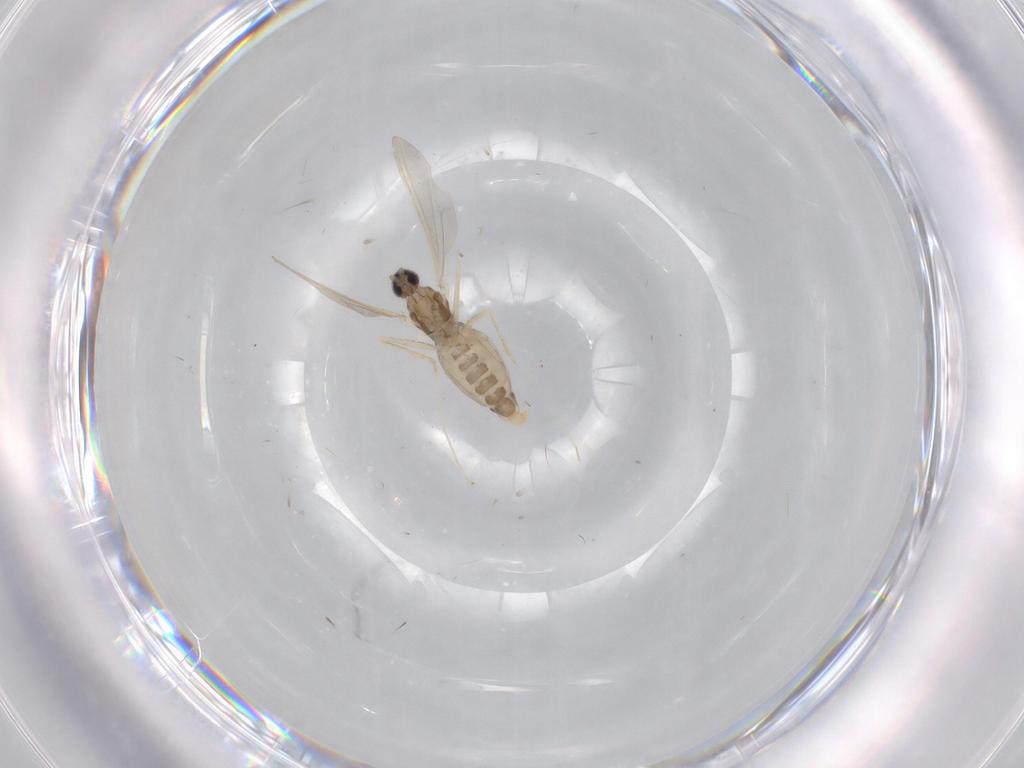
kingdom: Animalia
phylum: Arthropoda
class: Insecta
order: Diptera
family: Cecidomyiidae
